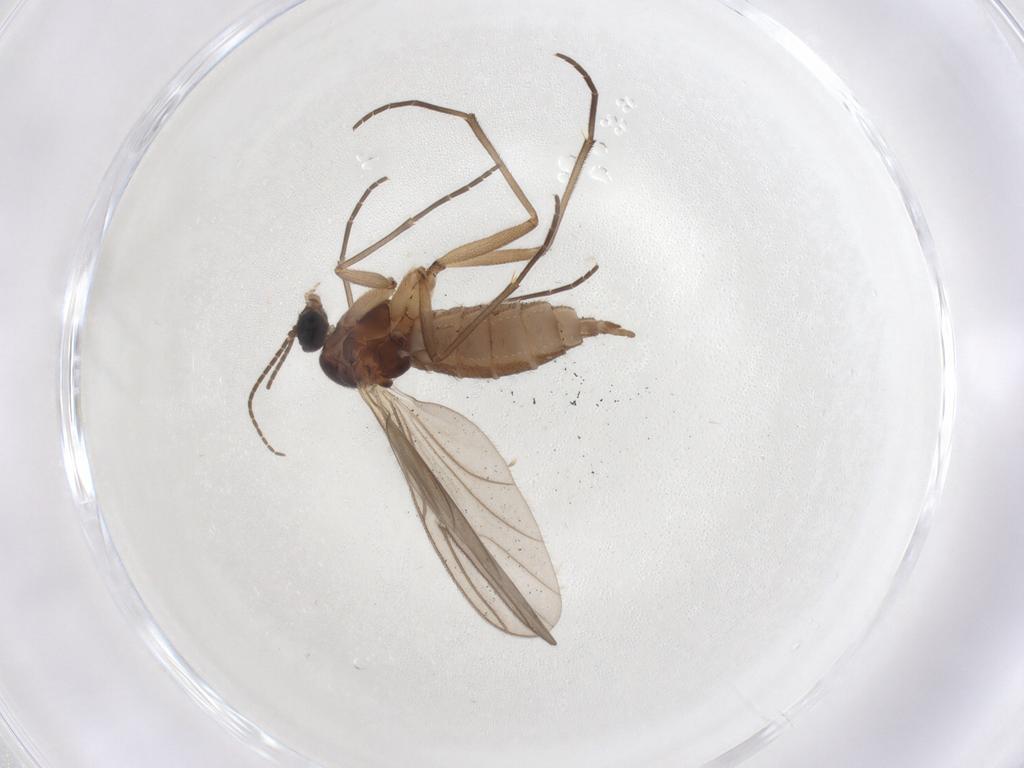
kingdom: Animalia
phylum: Arthropoda
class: Insecta
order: Diptera
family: Sciaridae
